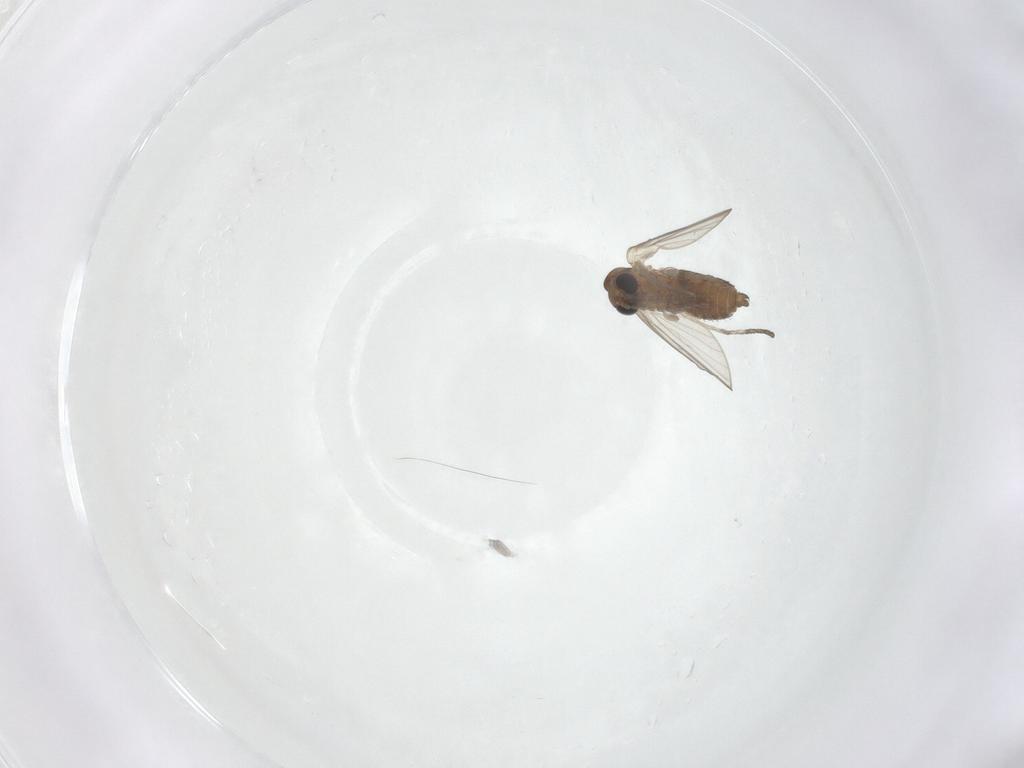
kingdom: Animalia
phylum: Arthropoda
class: Insecta
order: Diptera
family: Psychodidae
